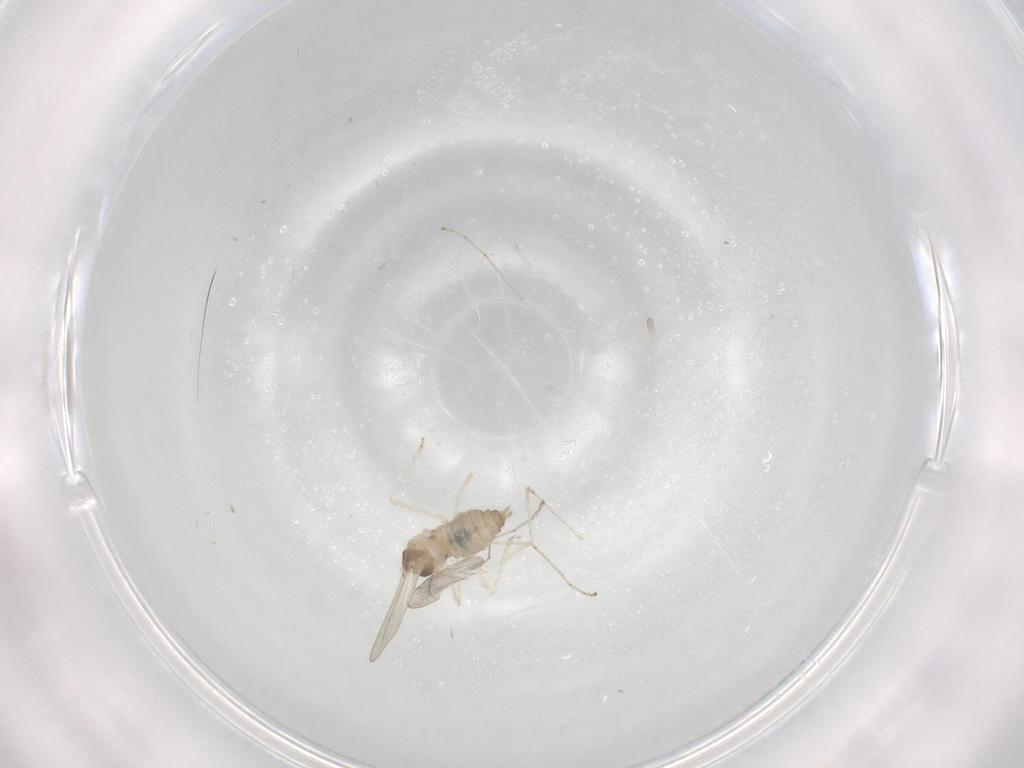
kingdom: Animalia
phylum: Arthropoda
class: Insecta
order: Diptera
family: Cecidomyiidae
